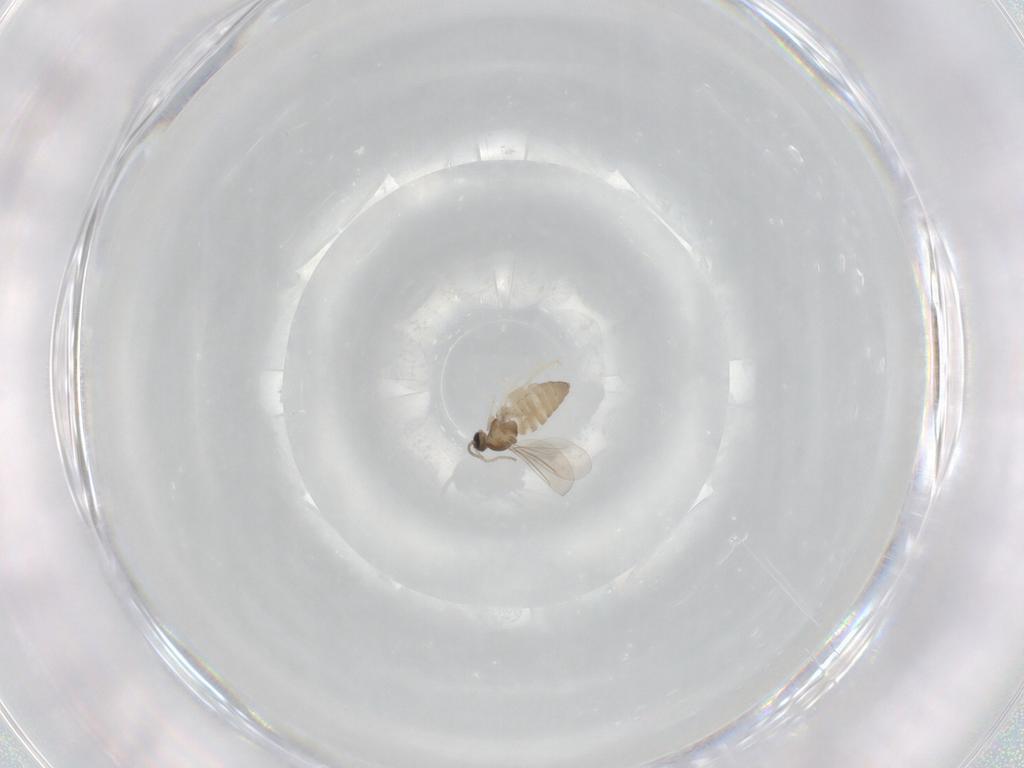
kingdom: Animalia
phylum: Arthropoda
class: Insecta
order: Diptera
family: Cecidomyiidae
